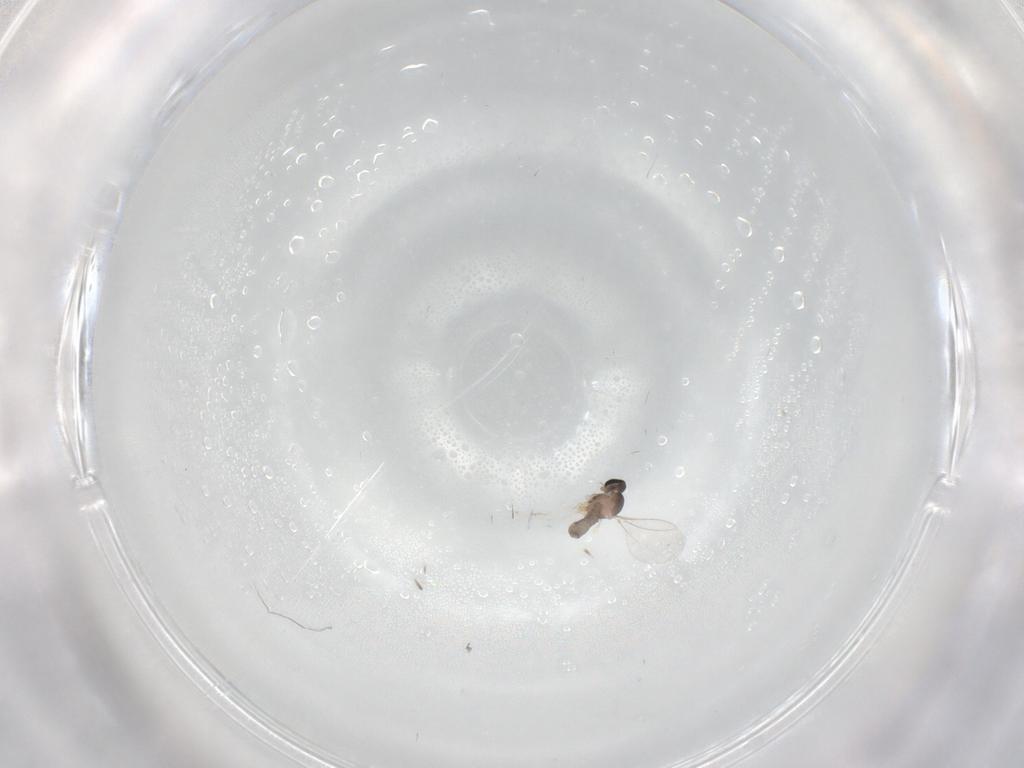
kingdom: Animalia
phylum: Arthropoda
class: Insecta
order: Diptera
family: Cecidomyiidae
